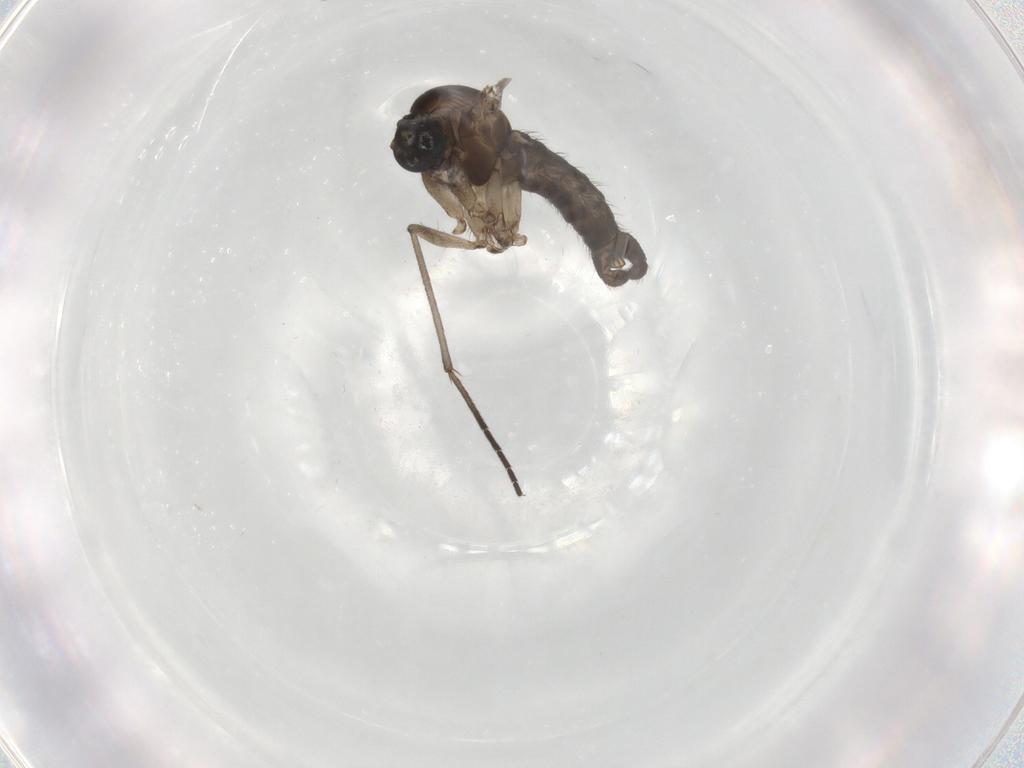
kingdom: Animalia
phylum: Arthropoda
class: Insecta
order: Diptera
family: Sciaridae
